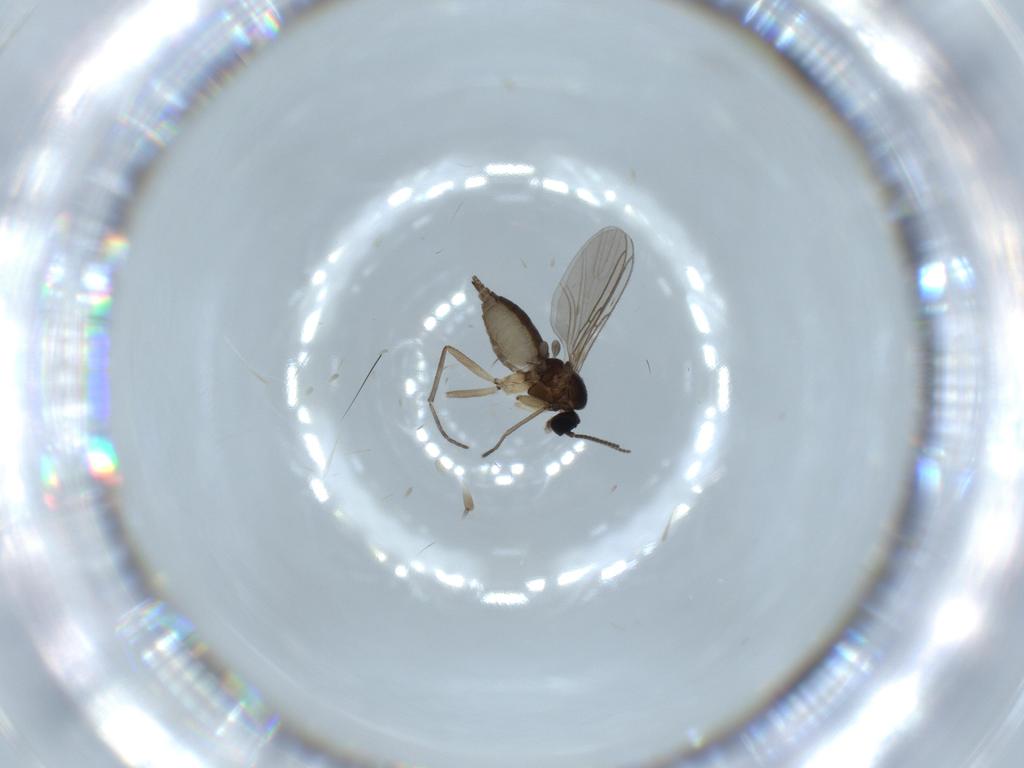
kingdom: Animalia
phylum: Arthropoda
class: Insecta
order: Diptera
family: Sciaridae
